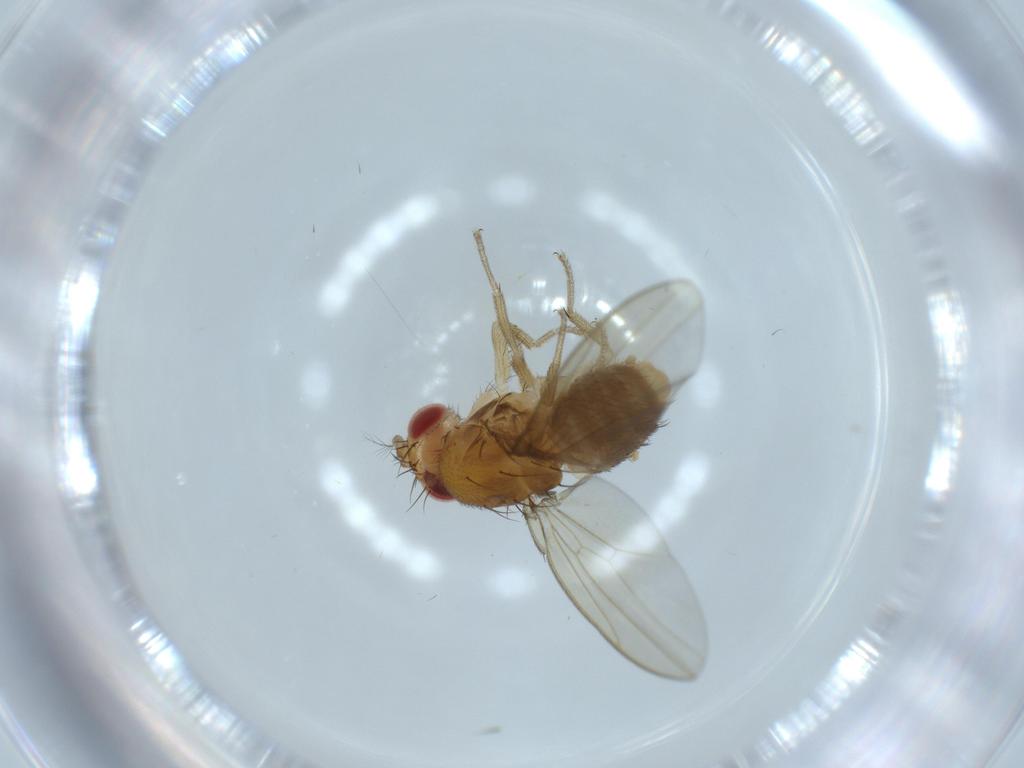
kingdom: Animalia
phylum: Arthropoda
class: Insecta
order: Diptera
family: Drosophilidae
